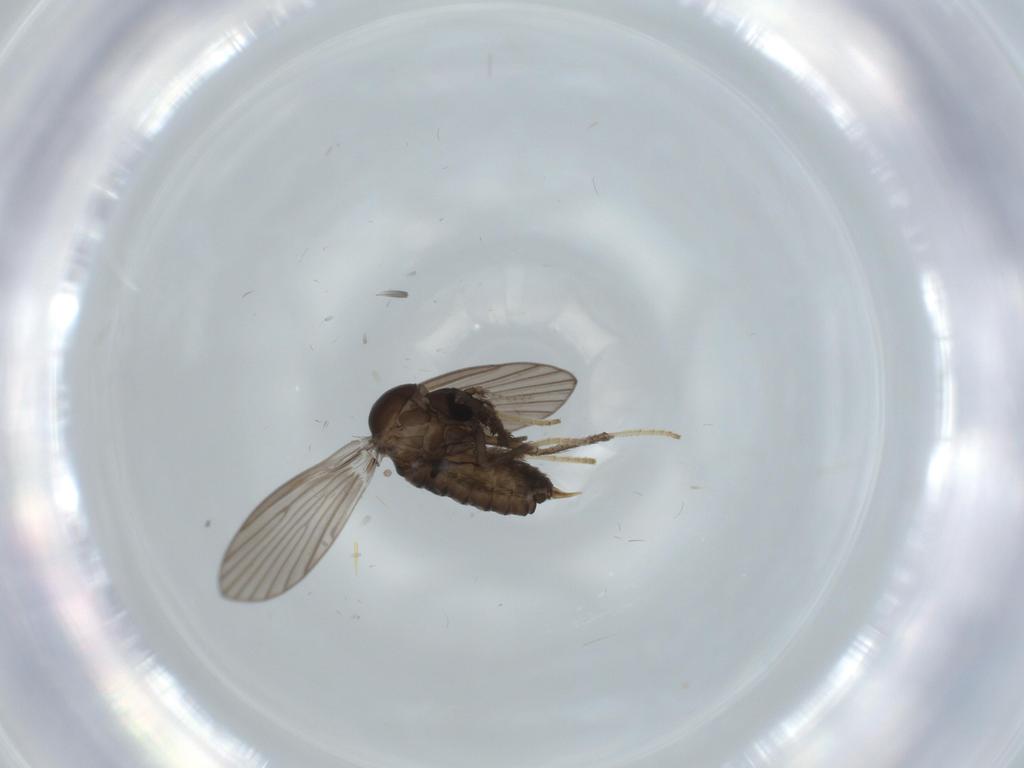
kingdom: Animalia
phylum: Arthropoda
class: Insecta
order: Diptera
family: Psychodidae
